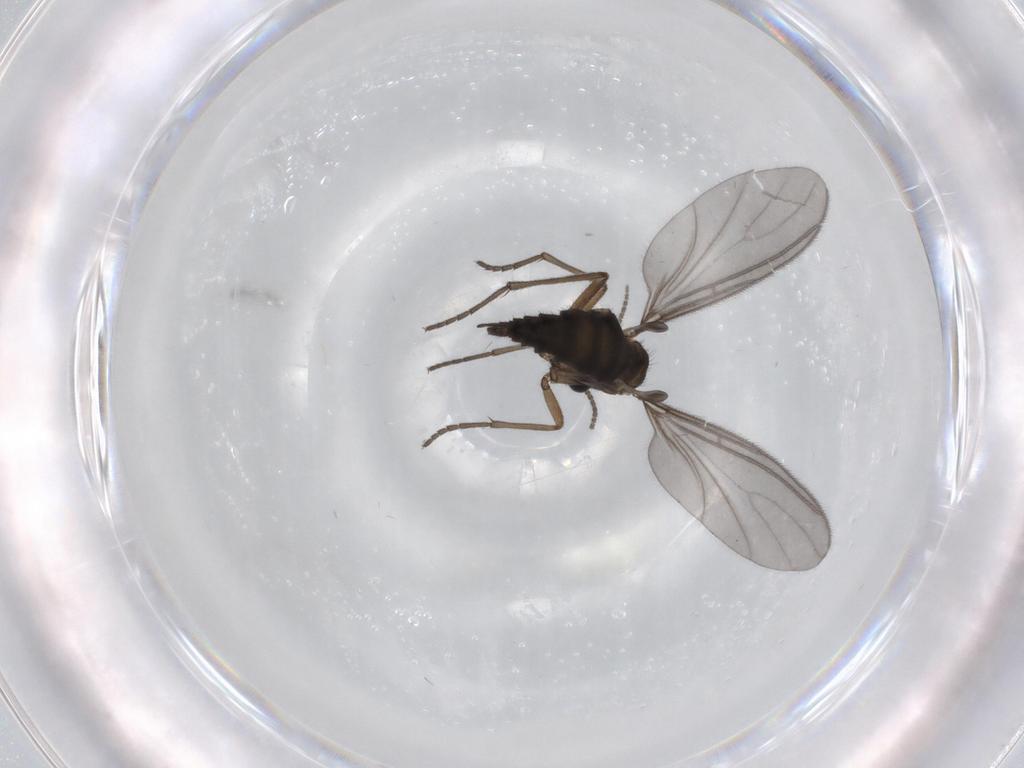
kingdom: Animalia
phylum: Arthropoda
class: Insecta
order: Diptera
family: Sciaridae
